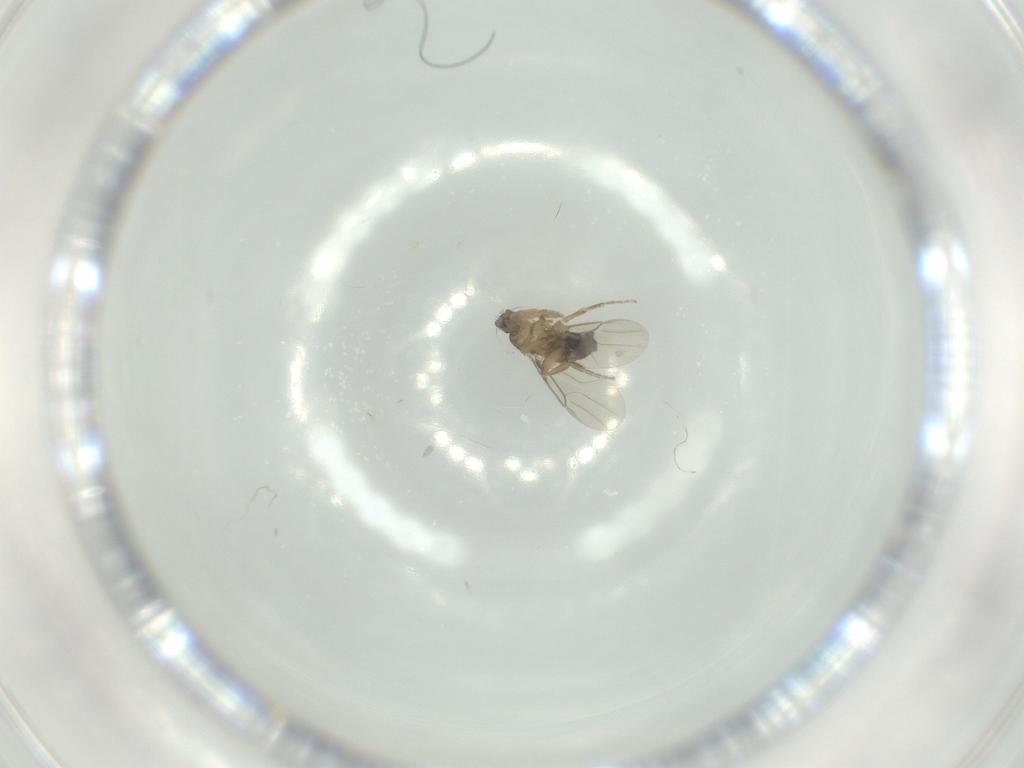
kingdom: Animalia
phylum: Arthropoda
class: Insecta
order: Diptera
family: Phoridae
